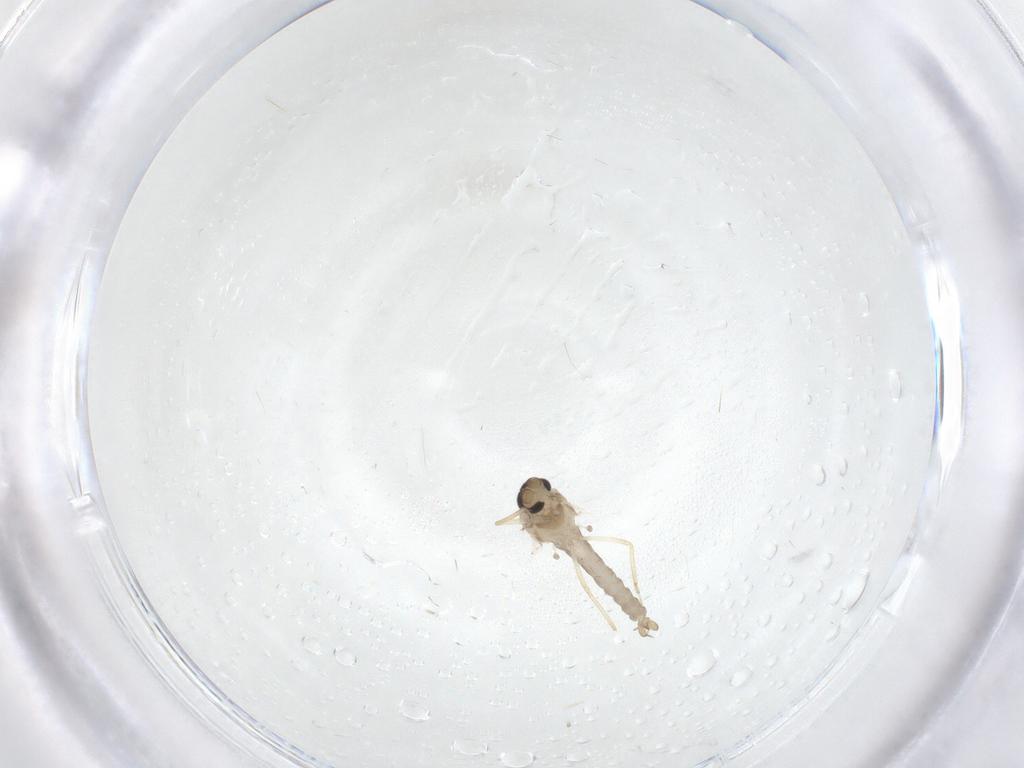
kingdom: Animalia
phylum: Arthropoda
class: Insecta
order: Diptera
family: Ceratopogonidae
